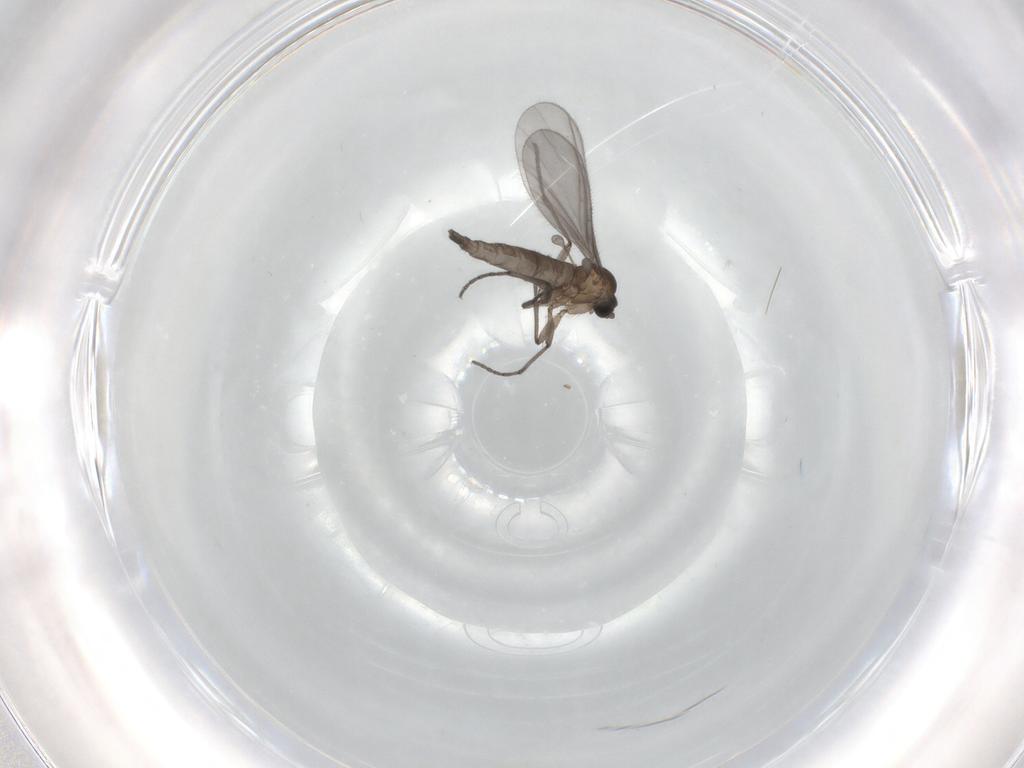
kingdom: Animalia
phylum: Arthropoda
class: Insecta
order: Diptera
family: Sciaridae
